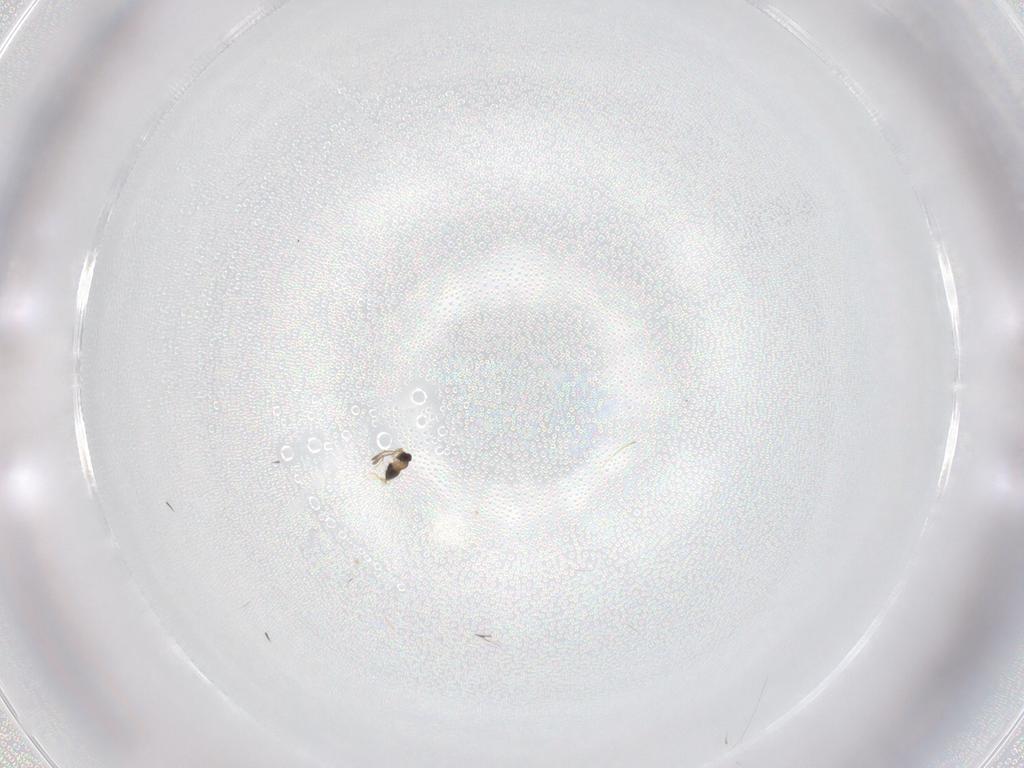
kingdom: Animalia
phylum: Arthropoda
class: Insecta
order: Hymenoptera
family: Mymaridae
